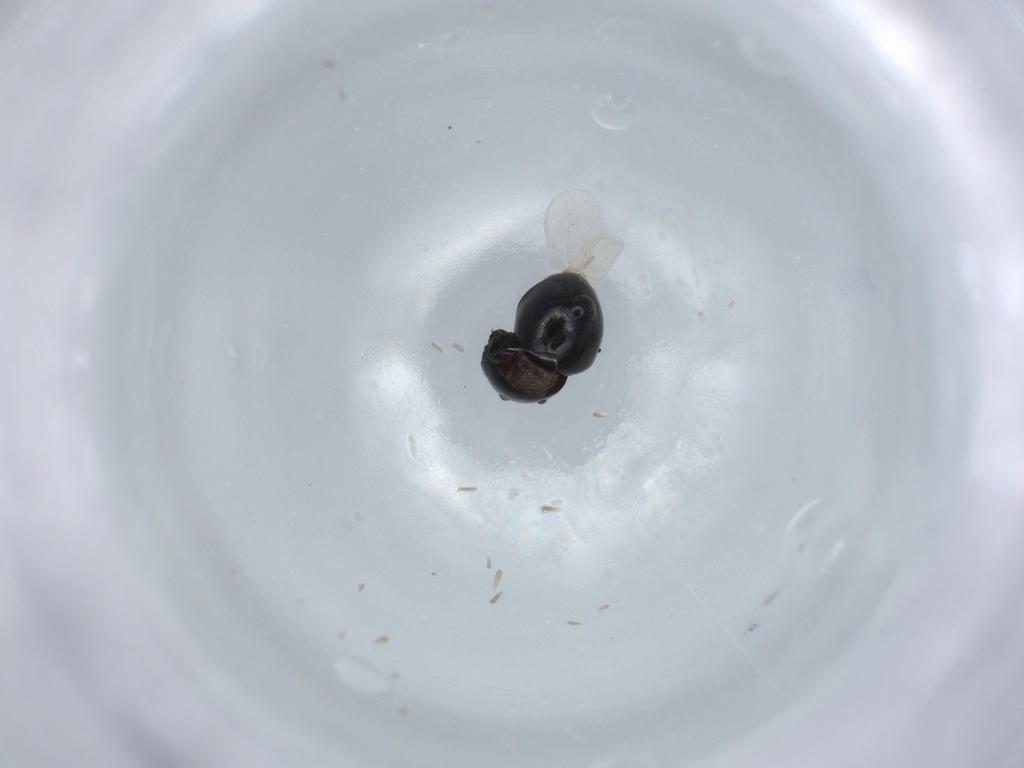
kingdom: Animalia
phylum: Arthropoda
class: Insecta
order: Coleoptera
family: Cybocephalidae
